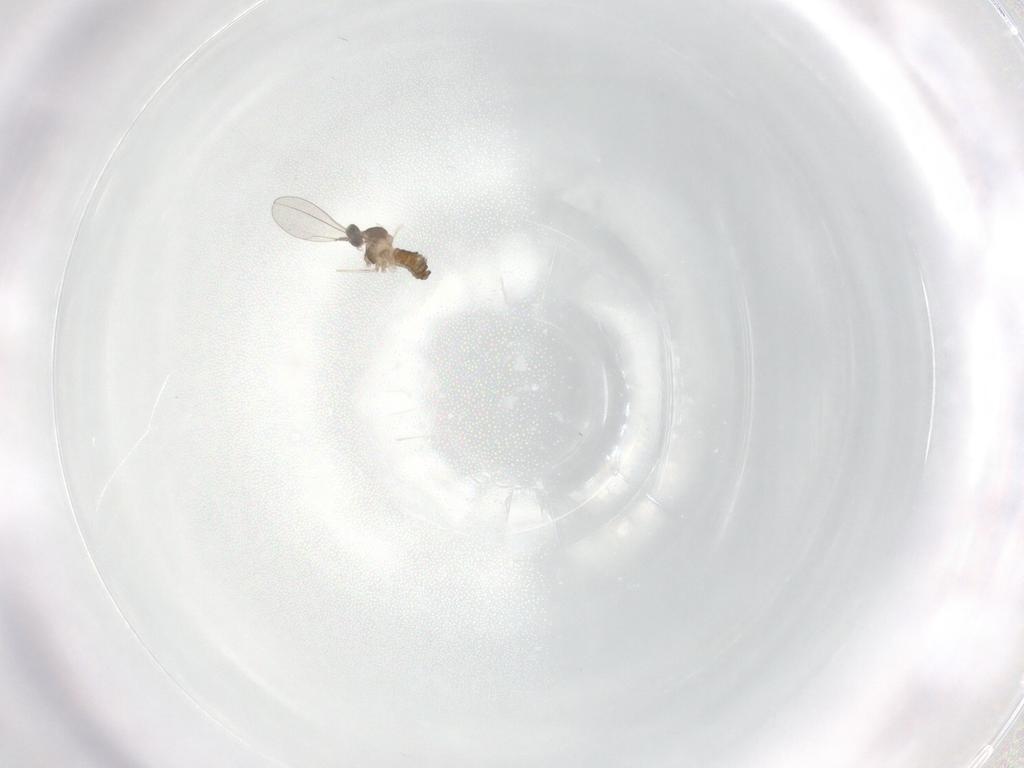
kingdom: Animalia
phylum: Arthropoda
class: Insecta
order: Diptera
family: Cecidomyiidae
